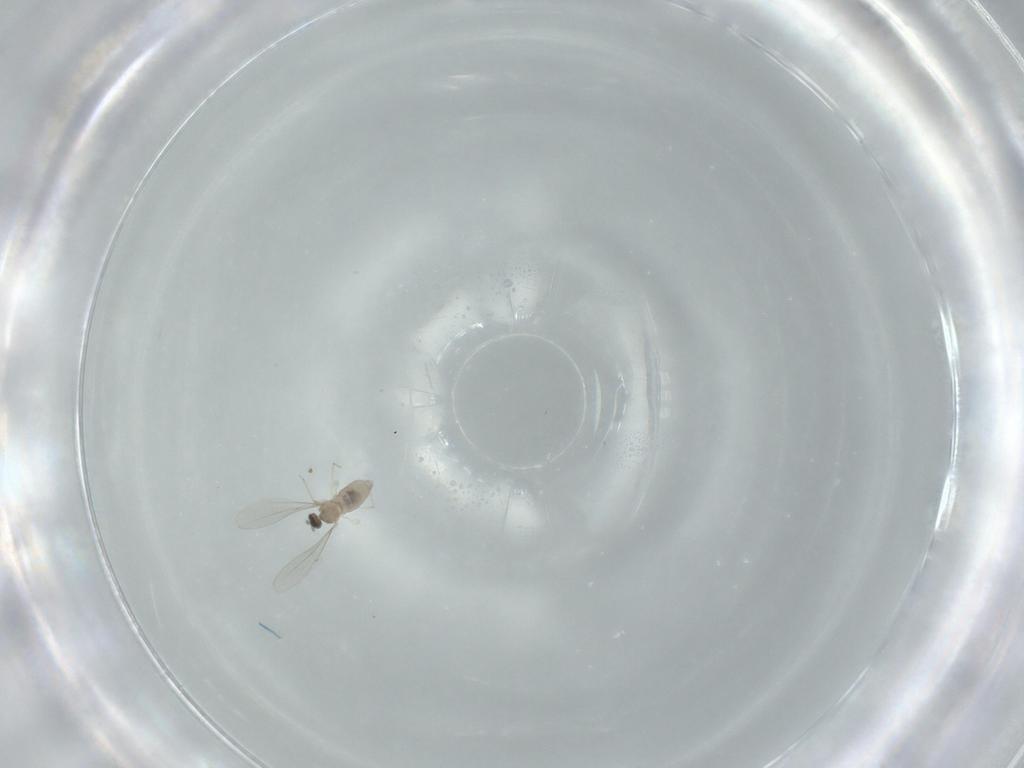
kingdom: Animalia
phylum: Arthropoda
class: Insecta
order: Diptera
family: Cecidomyiidae
